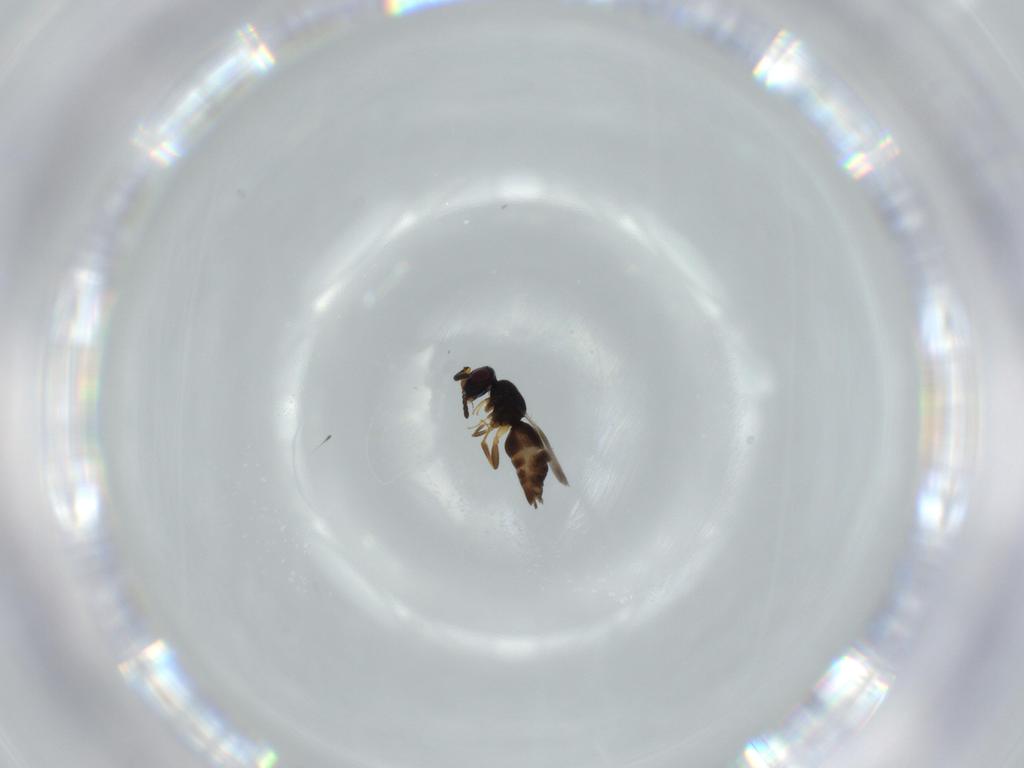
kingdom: Animalia
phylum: Arthropoda
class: Insecta
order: Hymenoptera
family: Ceraphronidae
